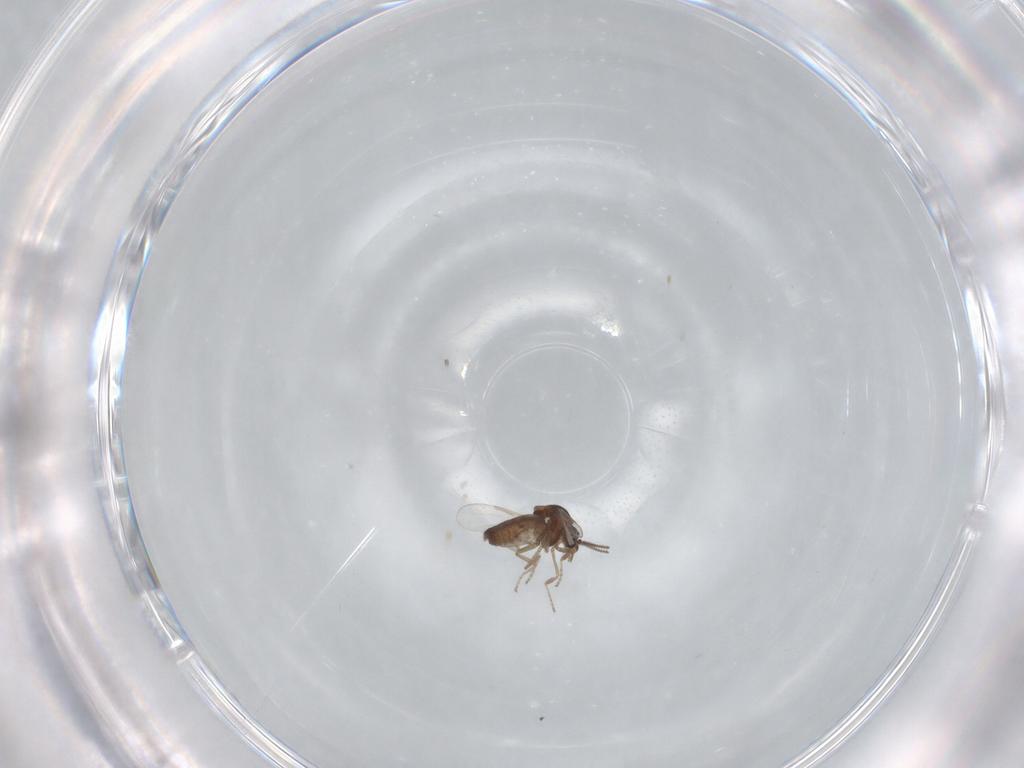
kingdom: Animalia
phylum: Arthropoda
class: Insecta
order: Diptera
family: Ceratopogonidae
